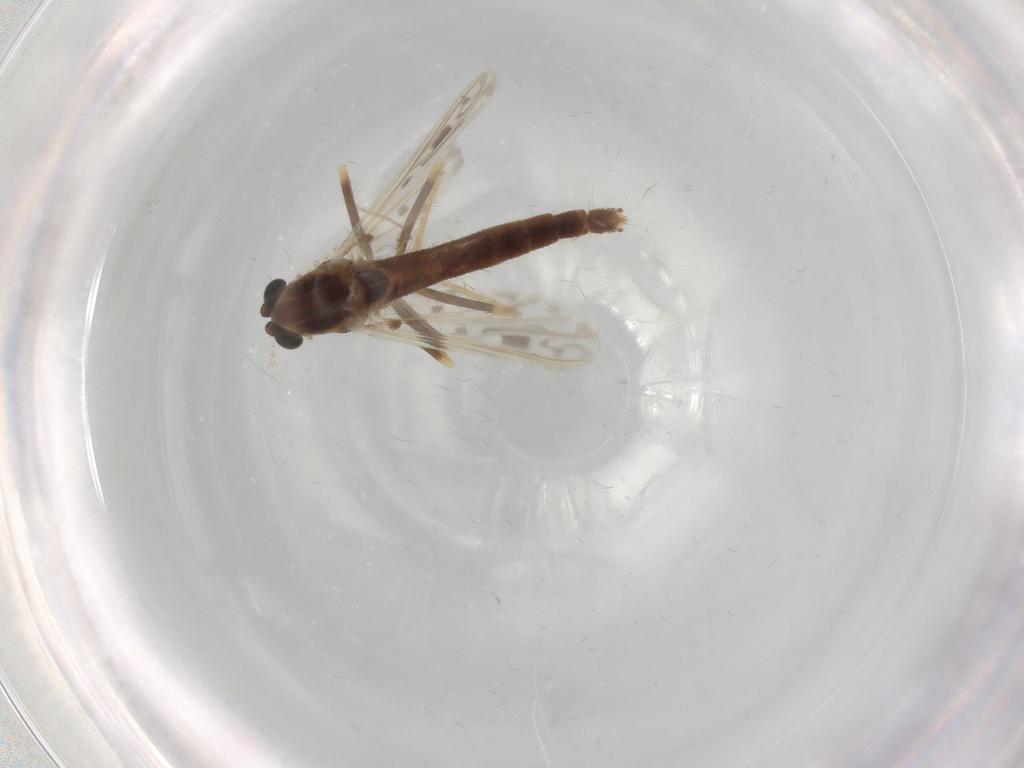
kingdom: Animalia
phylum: Arthropoda
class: Insecta
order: Diptera
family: Chironomidae
